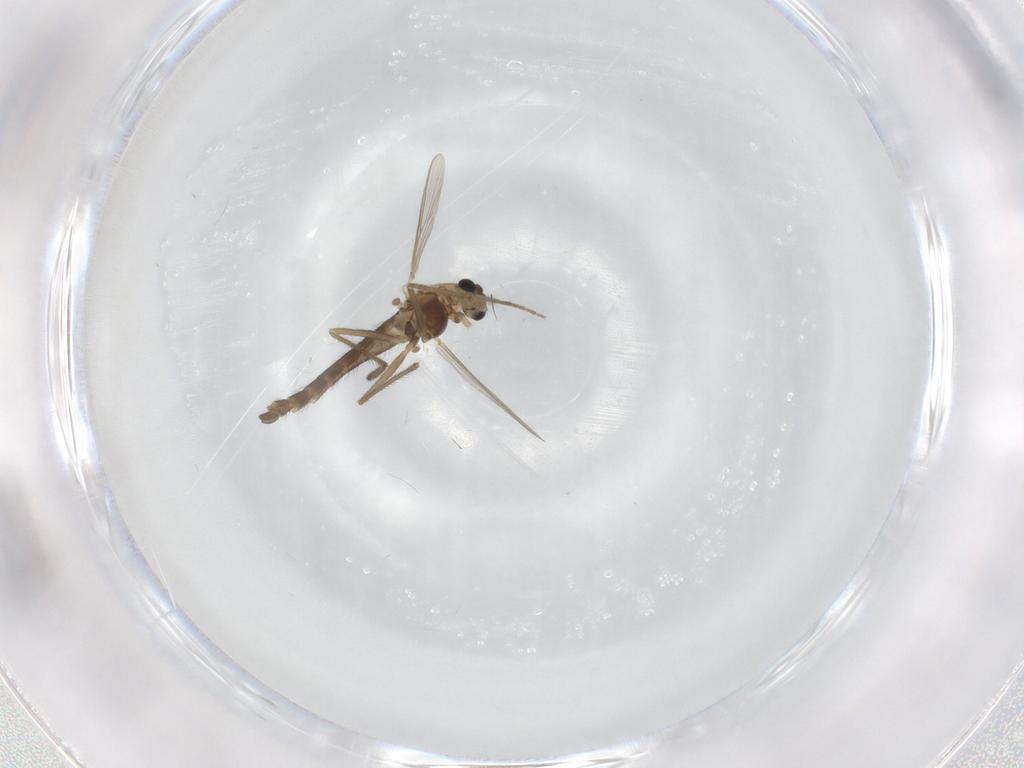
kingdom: Animalia
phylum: Arthropoda
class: Insecta
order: Diptera
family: Chironomidae
